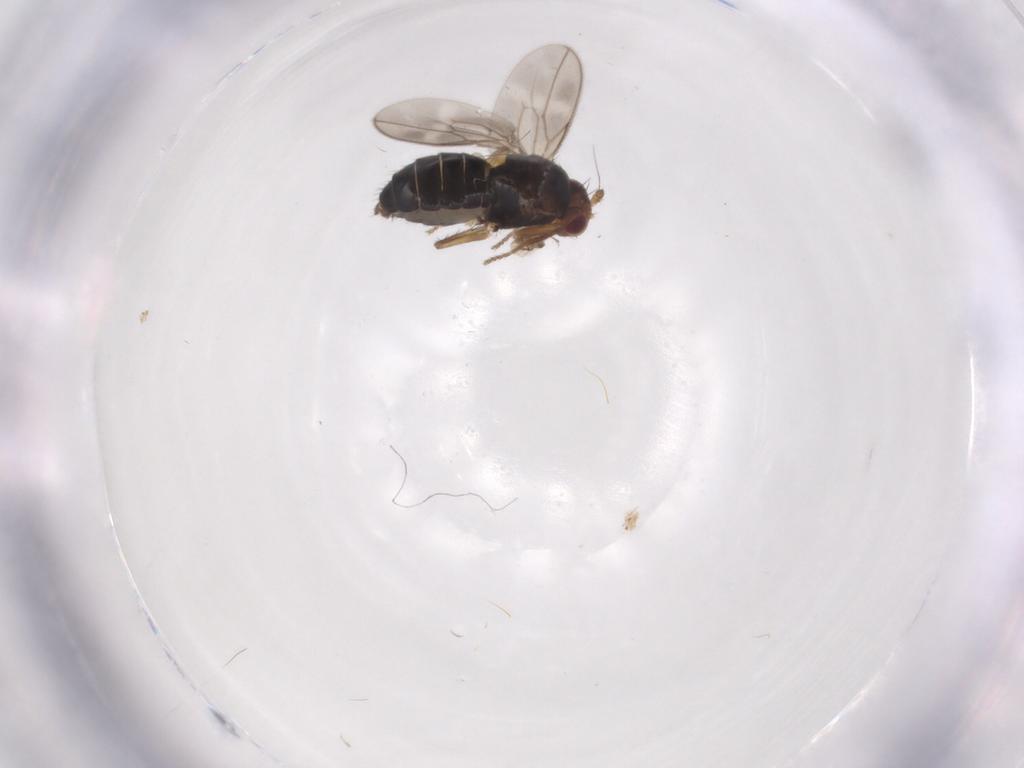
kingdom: Animalia
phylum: Arthropoda
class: Insecta
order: Diptera
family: Sphaeroceridae
